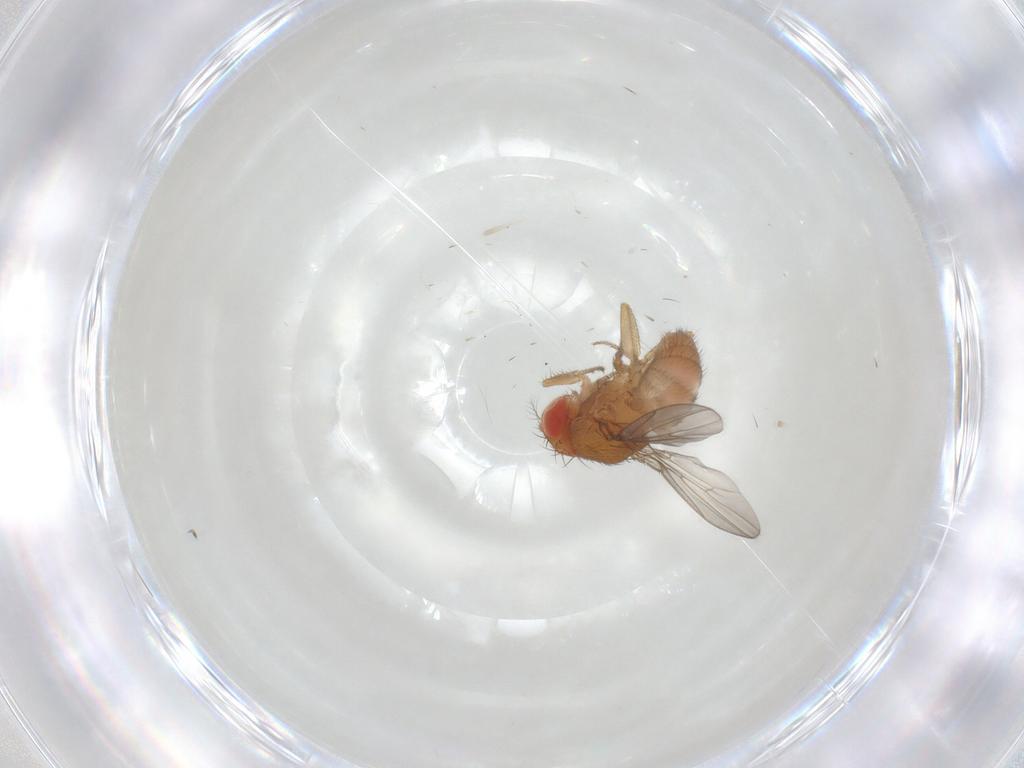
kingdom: Animalia
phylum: Arthropoda
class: Insecta
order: Diptera
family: Drosophilidae
